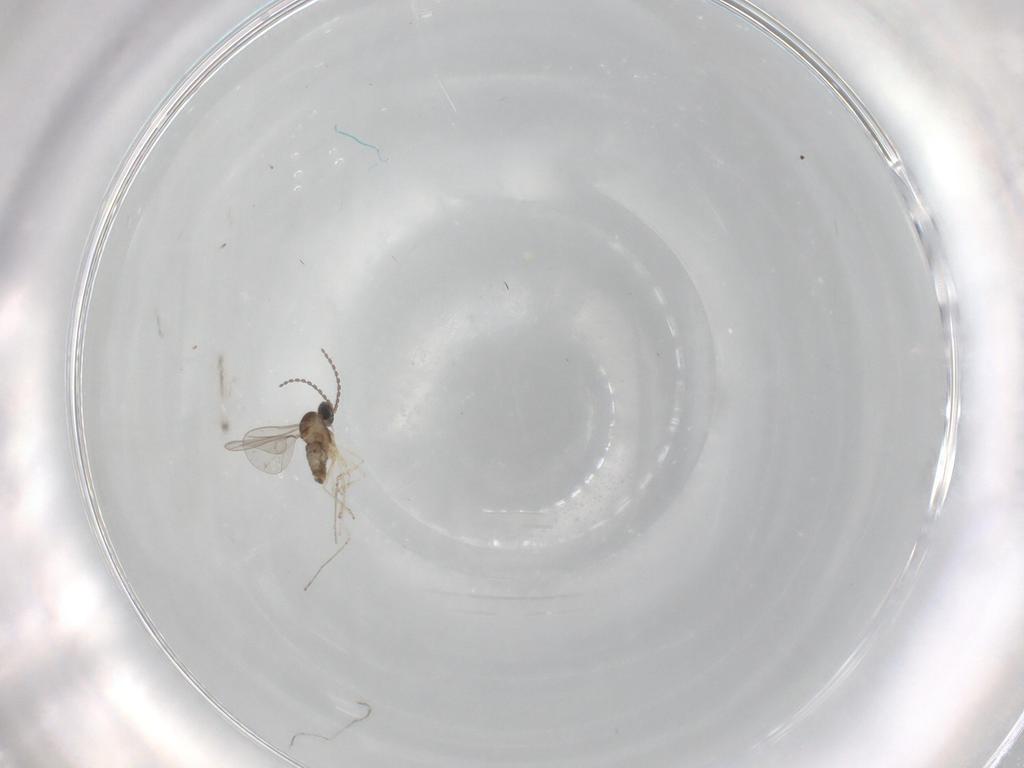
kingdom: Animalia
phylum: Arthropoda
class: Insecta
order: Diptera
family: Cecidomyiidae
